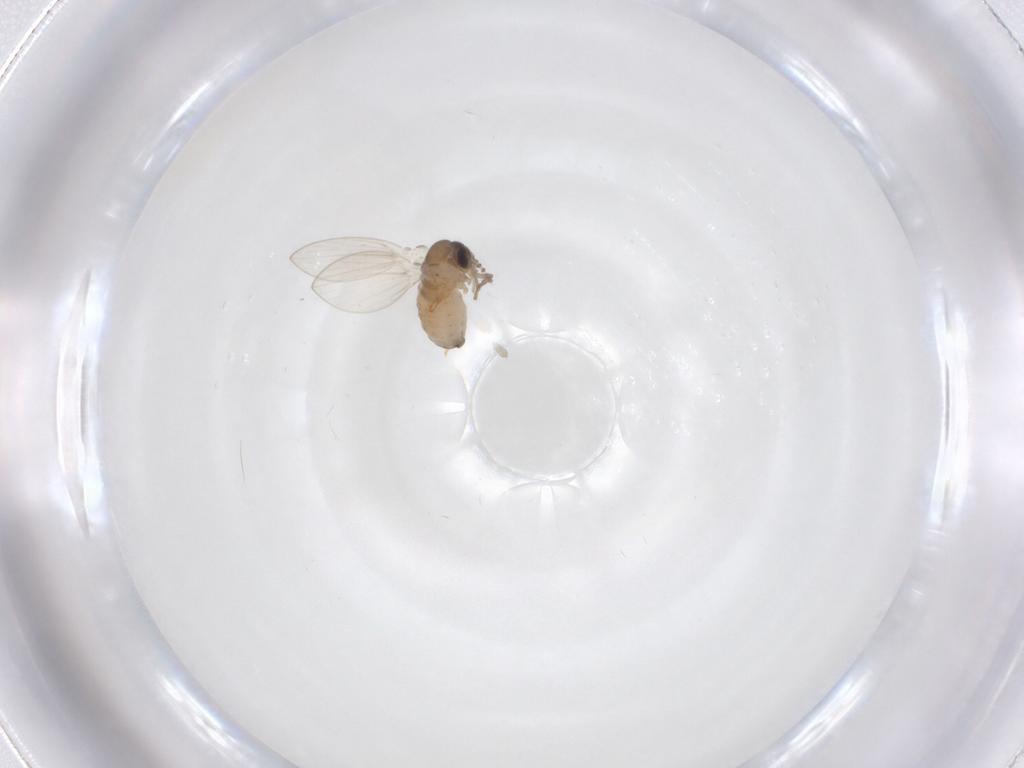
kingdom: Animalia
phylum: Arthropoda
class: Insecta
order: Diptera
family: Psychodidae
